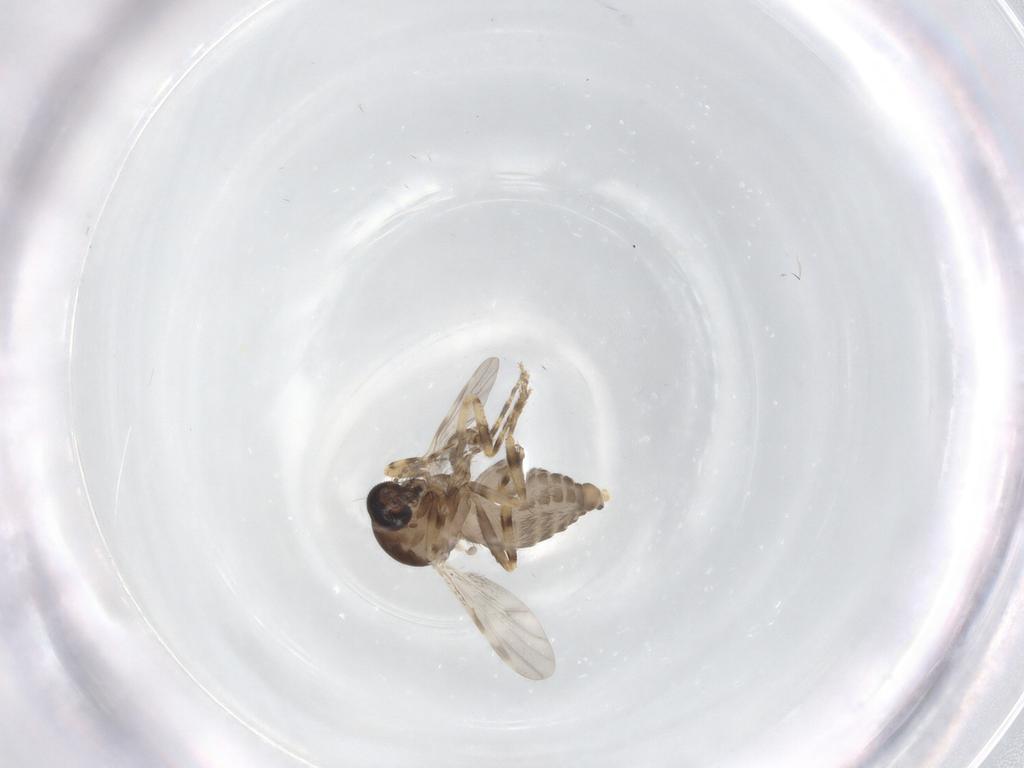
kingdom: Animalia
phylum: Arthropoda
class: Insecta
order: Diptera
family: Ceratopogonidae
